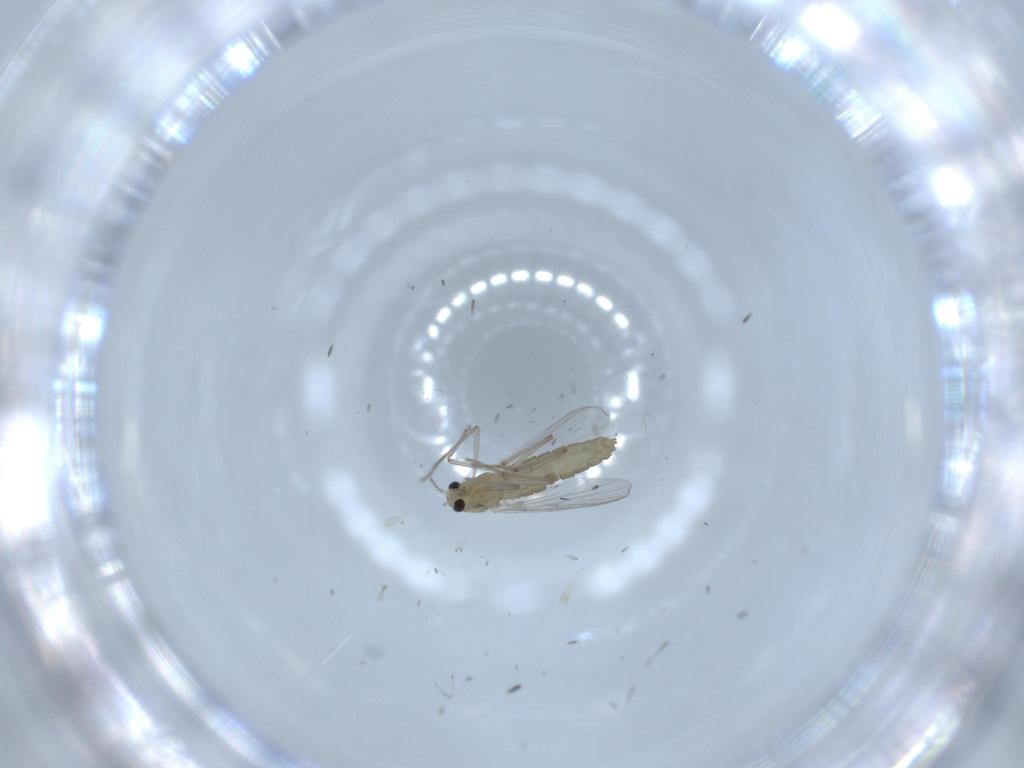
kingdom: Animalia
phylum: Arthropoda
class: Insecta
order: Diptera
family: Chironomidae
